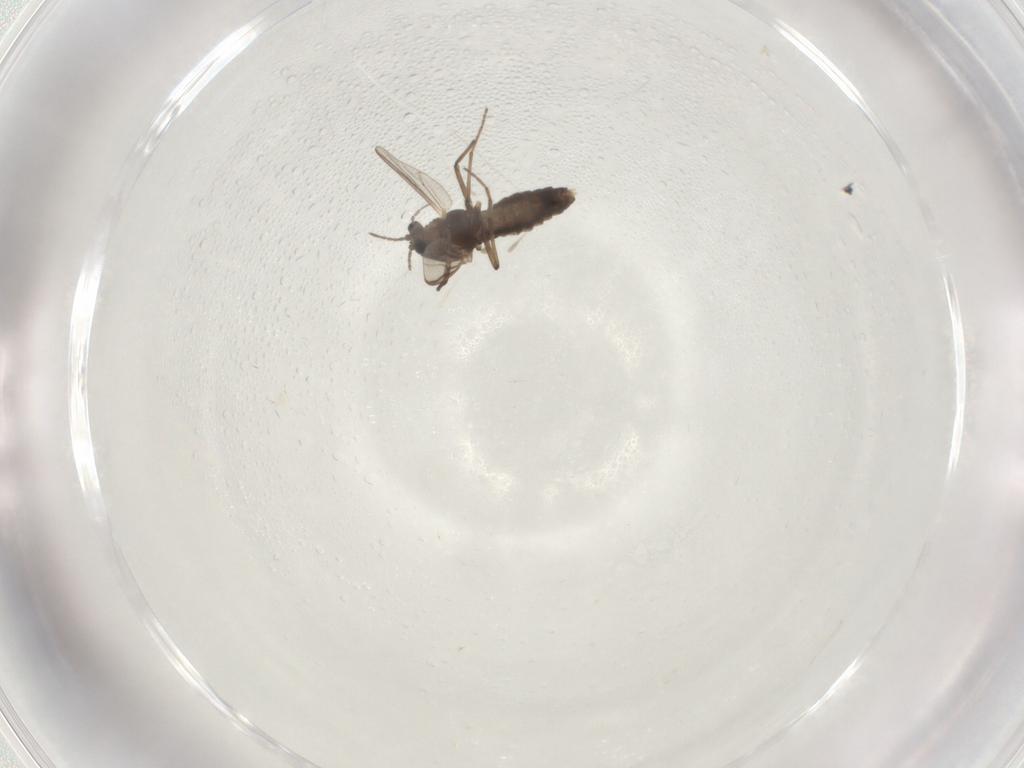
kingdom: Animalia
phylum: Arthropoda
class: Insecta
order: Diptera
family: Chironomidae
